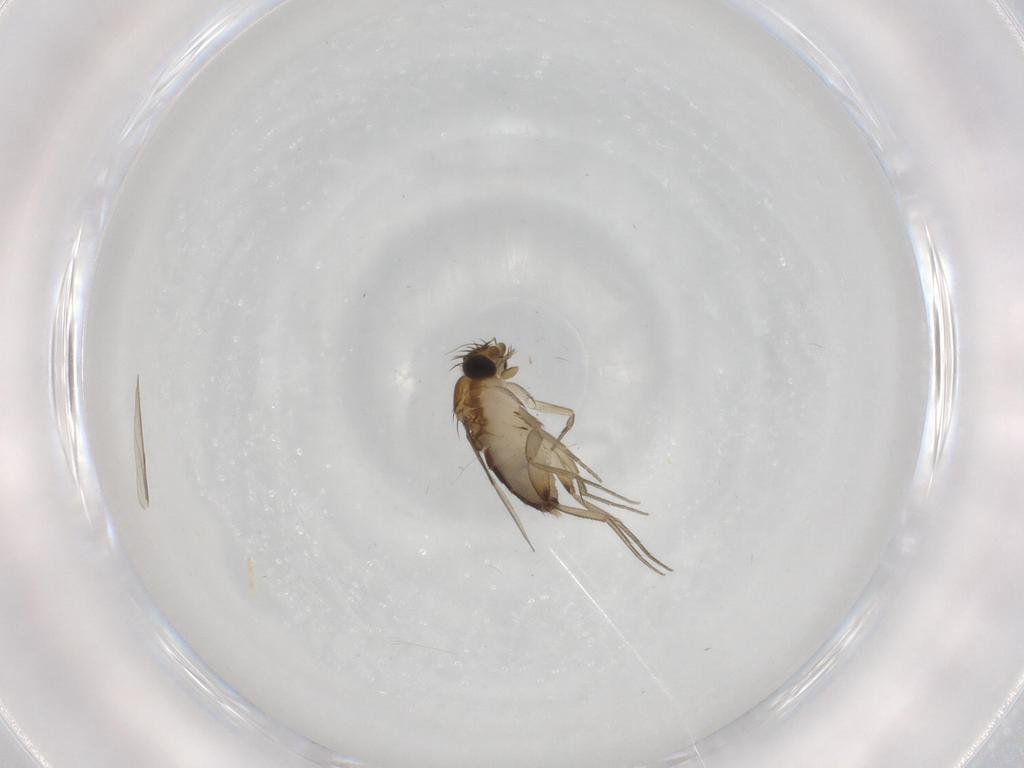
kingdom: Animalia
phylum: Arthropoda
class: Insecta
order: Diptera
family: Phoridae
